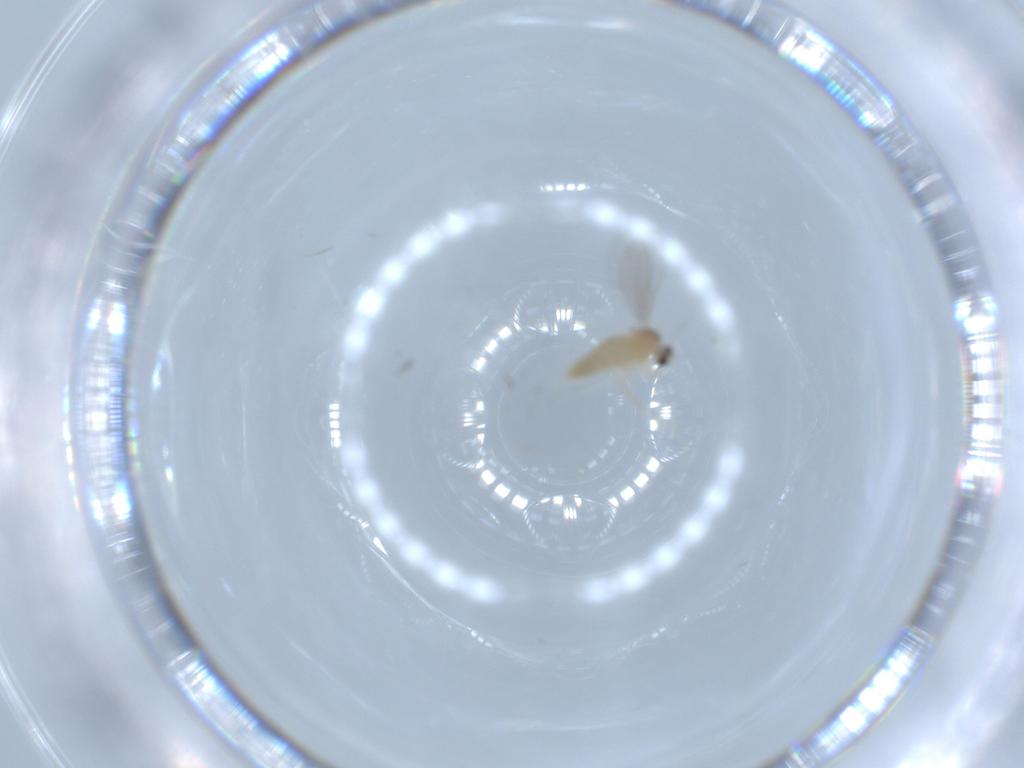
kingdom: Animalia
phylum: Arthropoda
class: Insecta
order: Diptera
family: Cecidomyiidae
